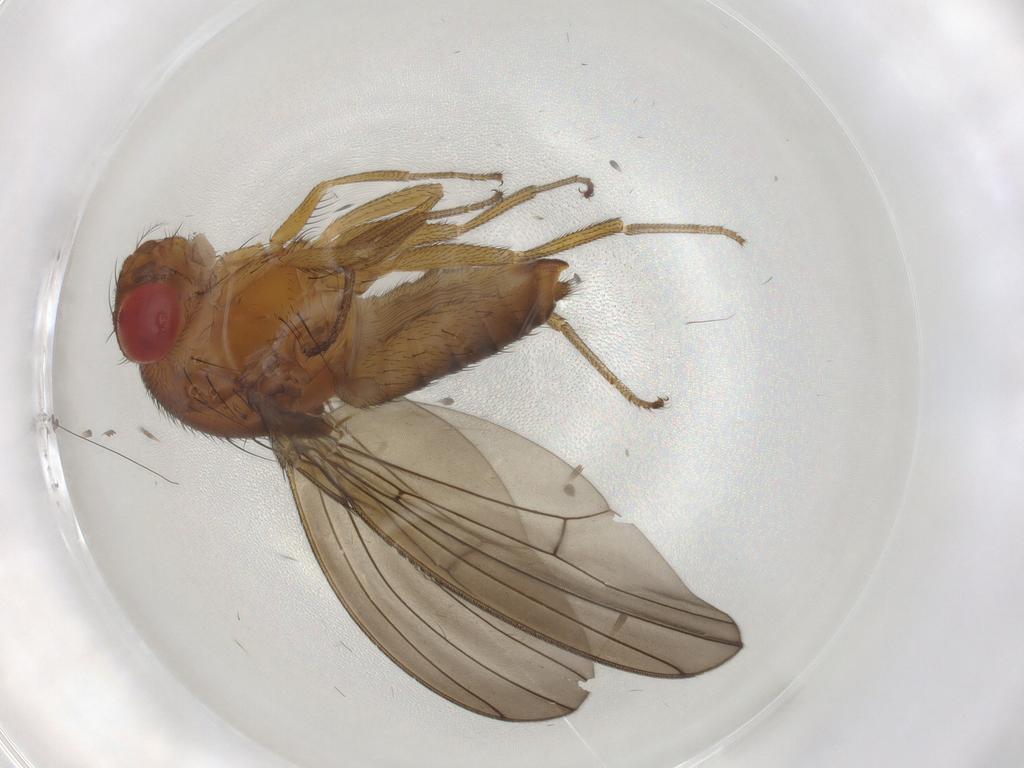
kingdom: Animalia
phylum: Arthropoda
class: Insecta
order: Diptera
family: Drosophilidae
